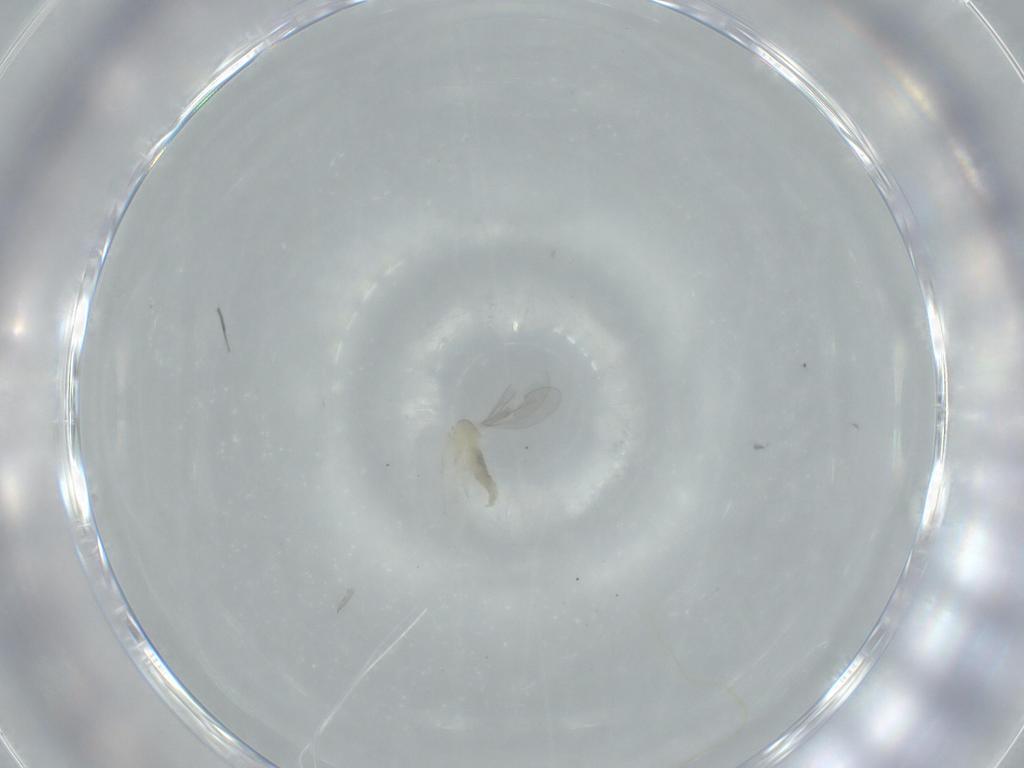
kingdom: Animalia
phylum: Arthropoda
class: Insecta
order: Diptera
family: Cecidomyiidae
